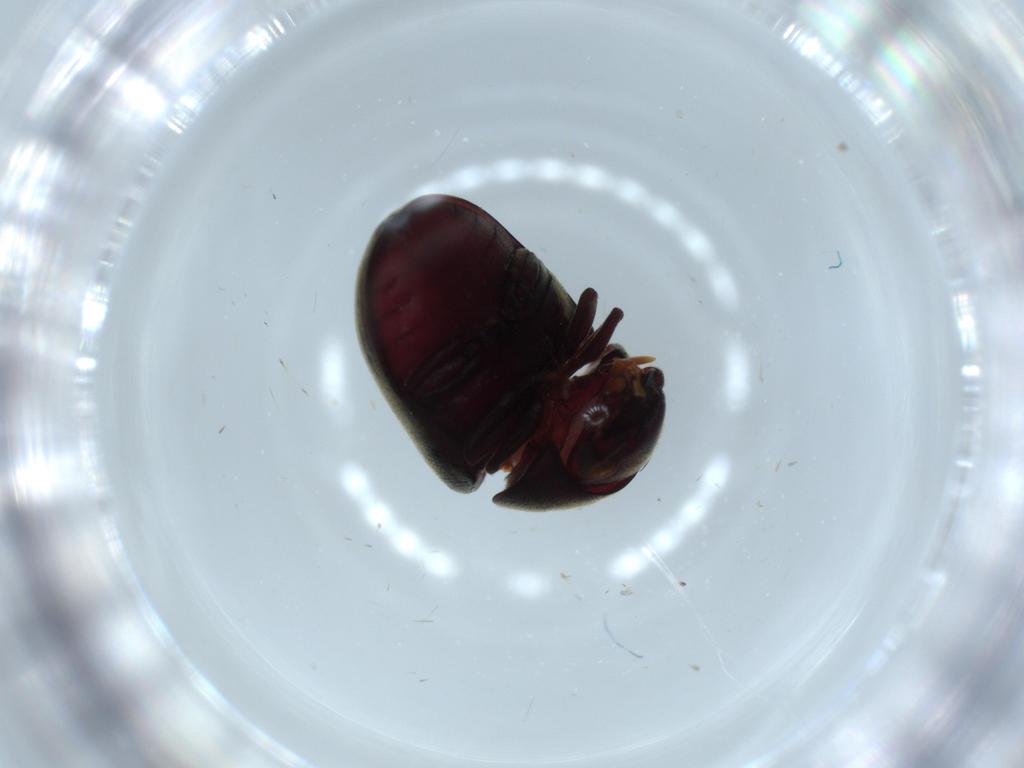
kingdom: Animalia
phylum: Arthropoda
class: Insecta
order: Coleoptera
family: Ptinidae
